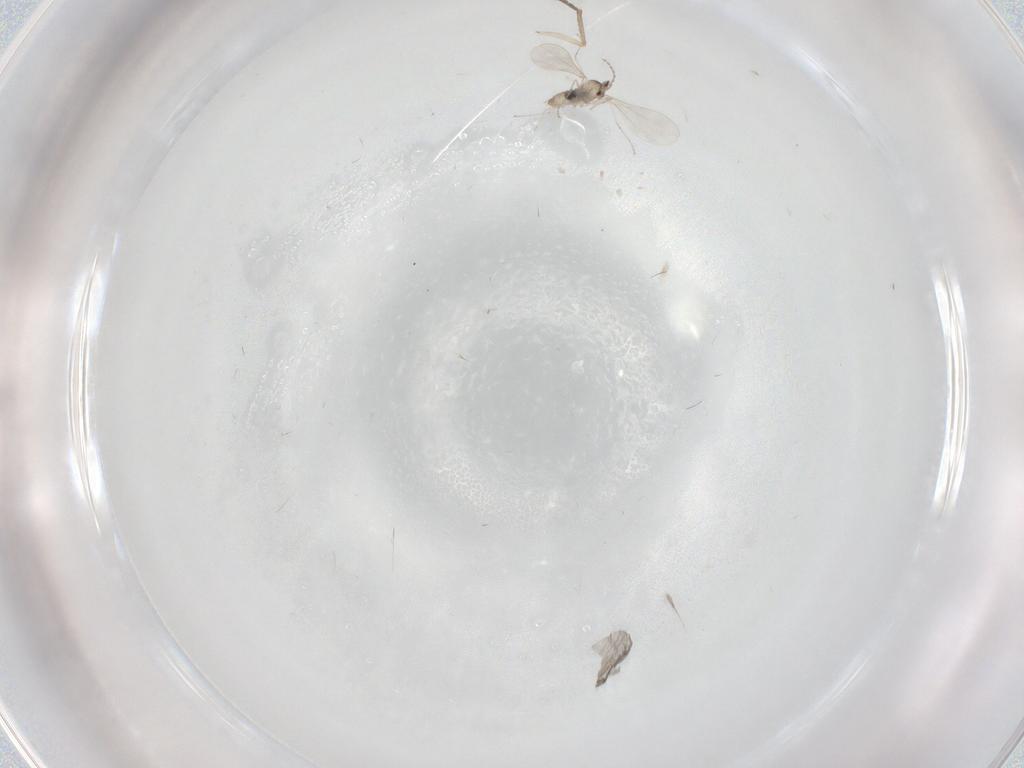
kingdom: Animalia
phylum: Arthropoda
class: Insecta
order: Diptera
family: Cecidomyiidae
